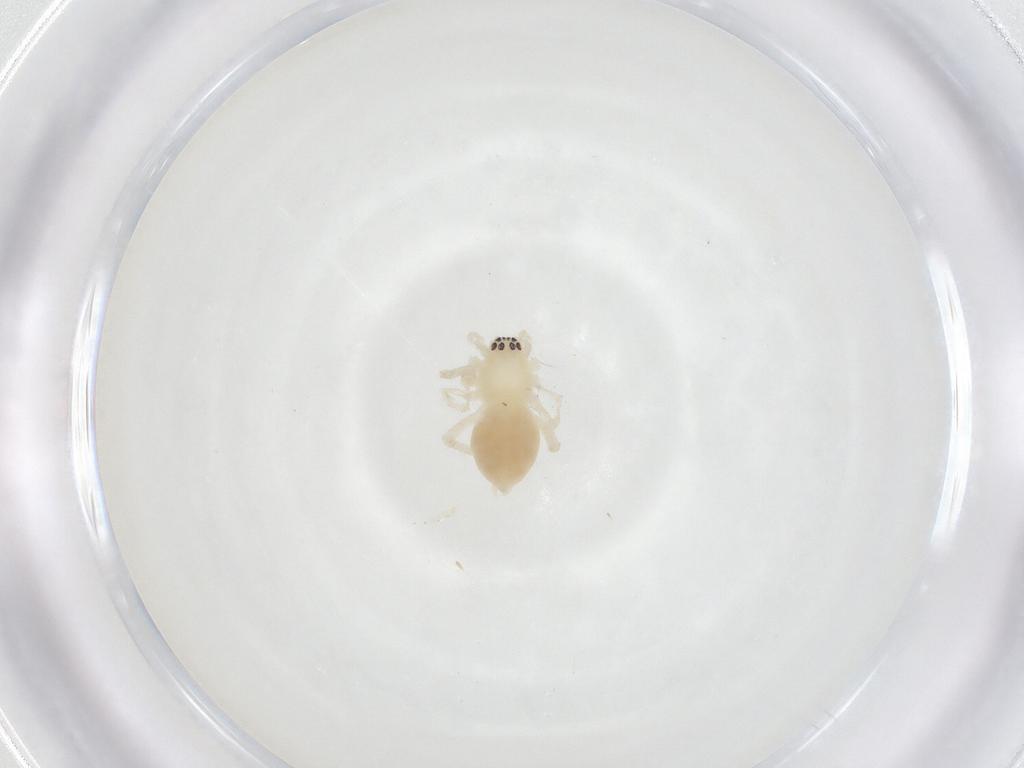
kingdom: Animalia
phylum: Arthropoda
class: Arachnida
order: Araneae
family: Anyphaenidae
